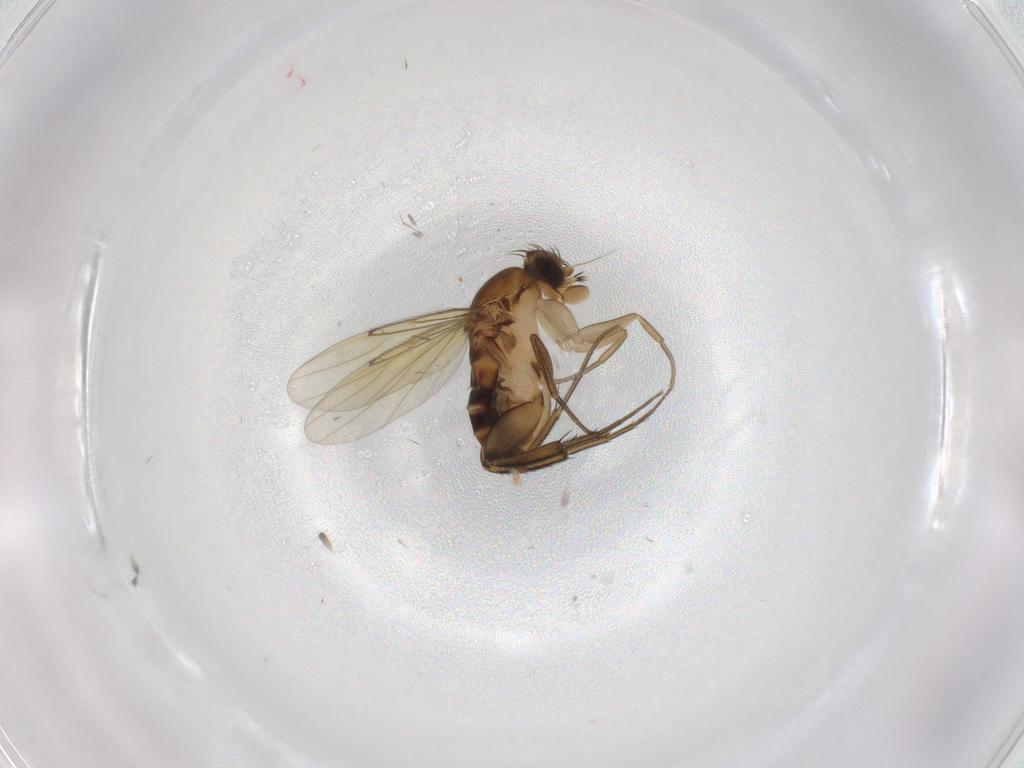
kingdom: Animalia
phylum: Arthropoda
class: Insecta
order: Diptera
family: Phoridae
